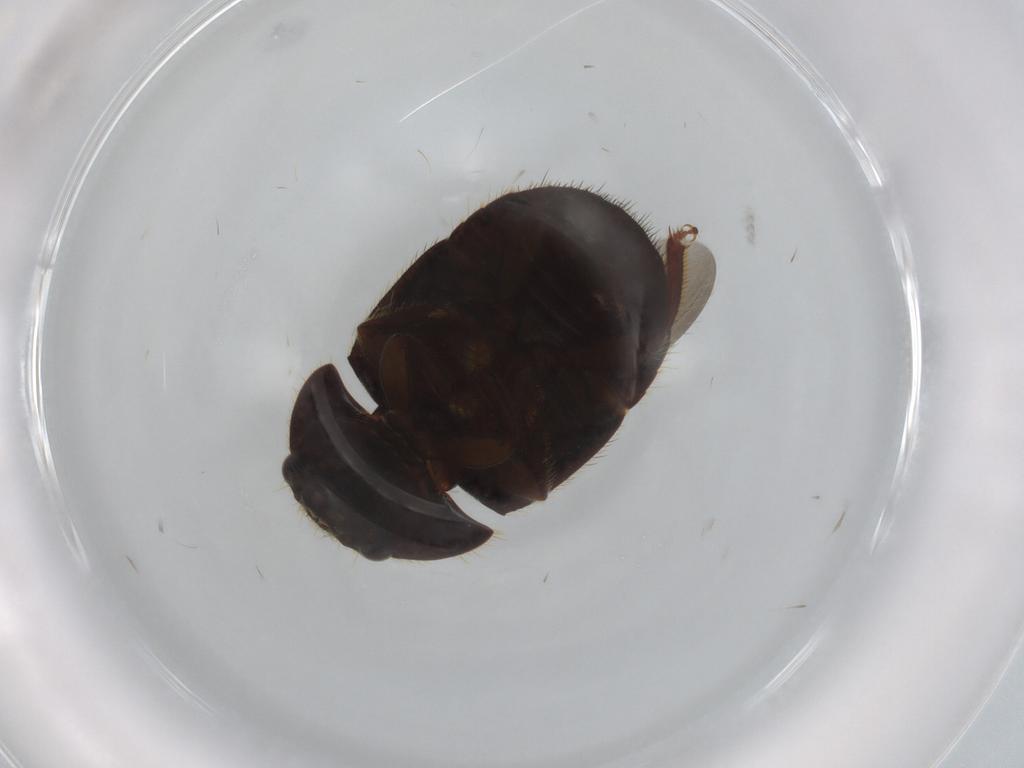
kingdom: Animalia
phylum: Arthropoda
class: Insecta
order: Coleoptera
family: Nitidulidae
